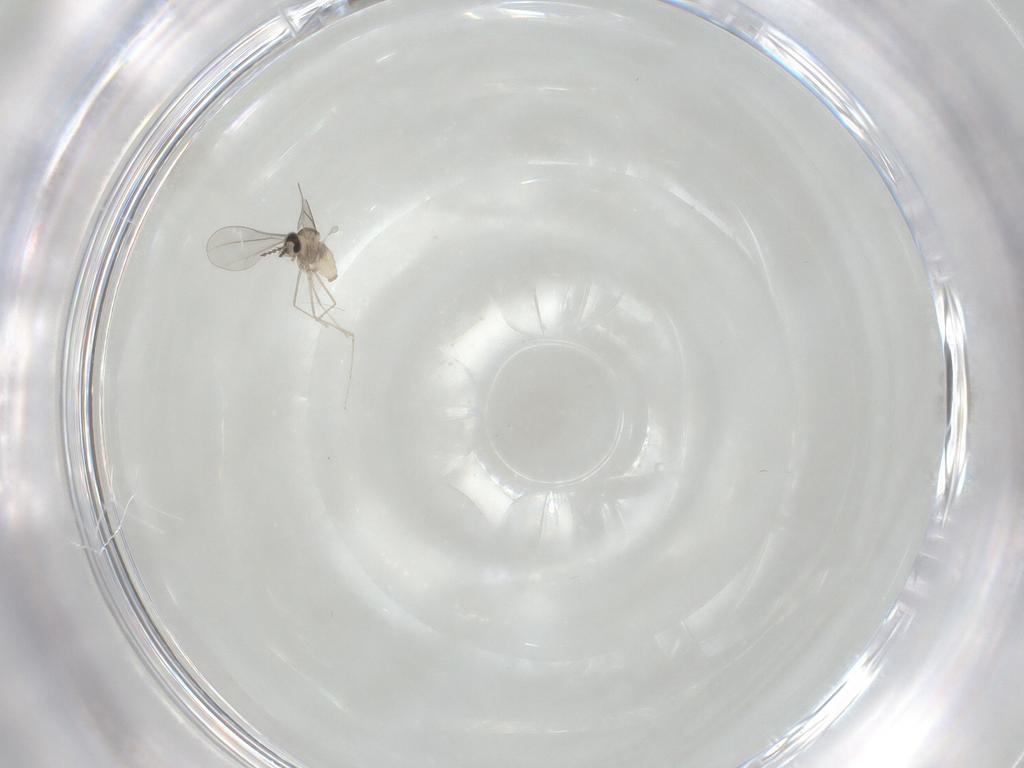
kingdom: Animalia
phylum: Arthropoda
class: Insecta
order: Diptera
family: Cecidomyiidae
